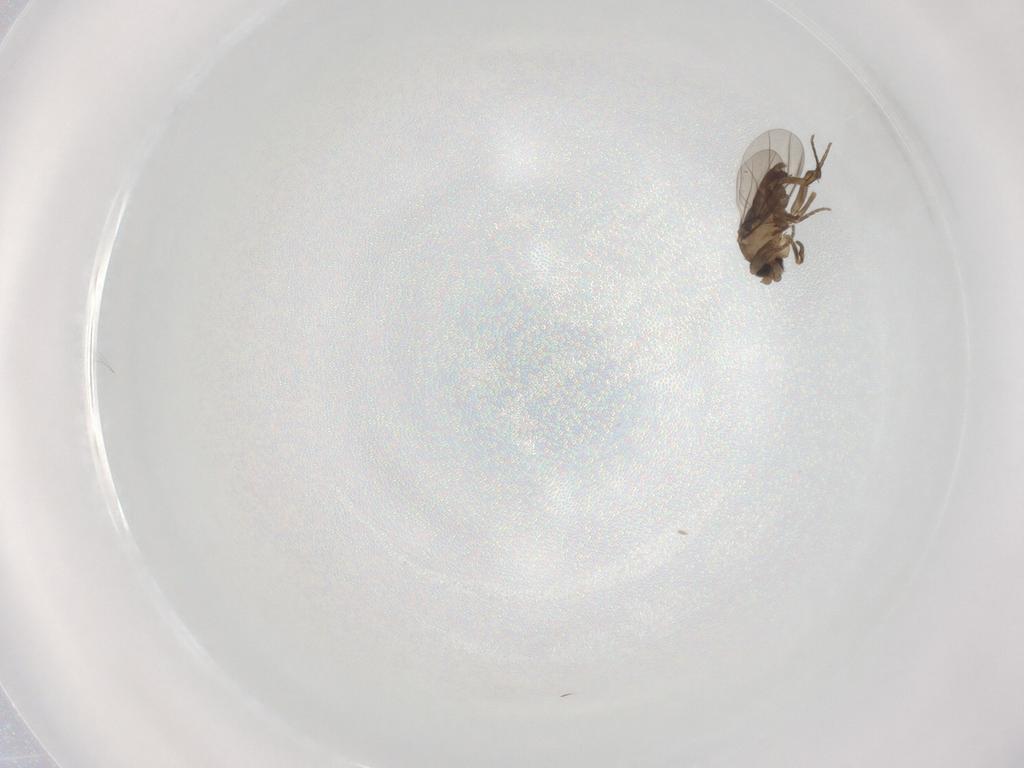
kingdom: Animalia
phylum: Arthropoda
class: Insecta
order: Diptera
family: Phoridae
